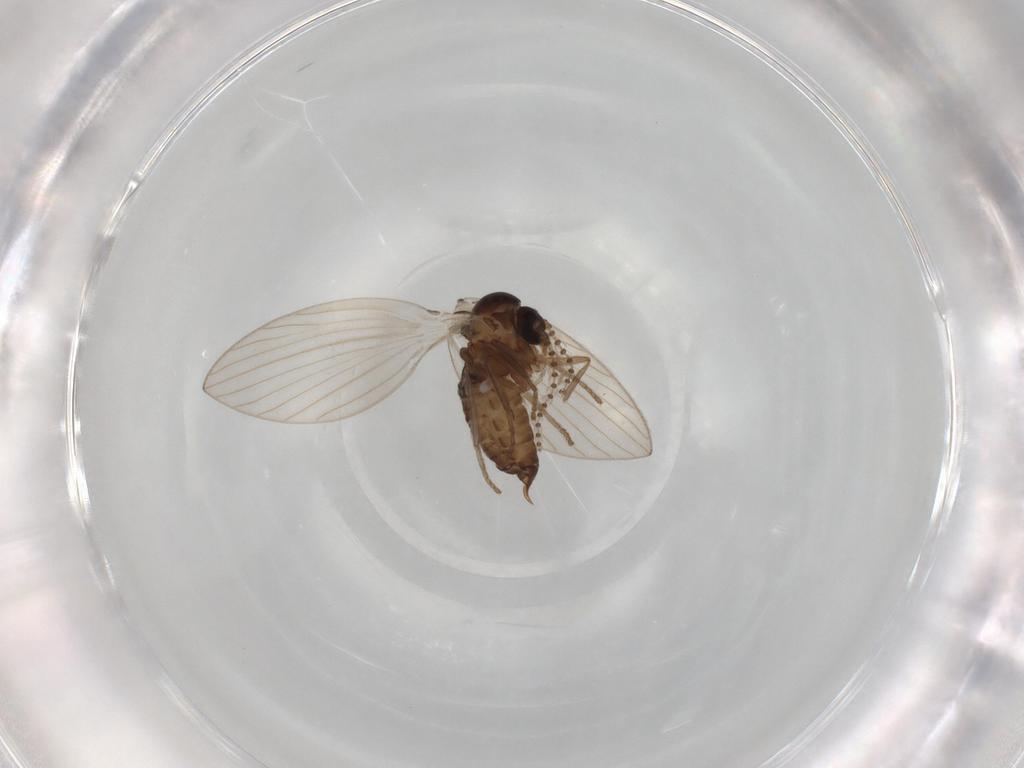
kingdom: Animalia
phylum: Arthropoda
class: Insecta
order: Diptera
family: Psychodidae
